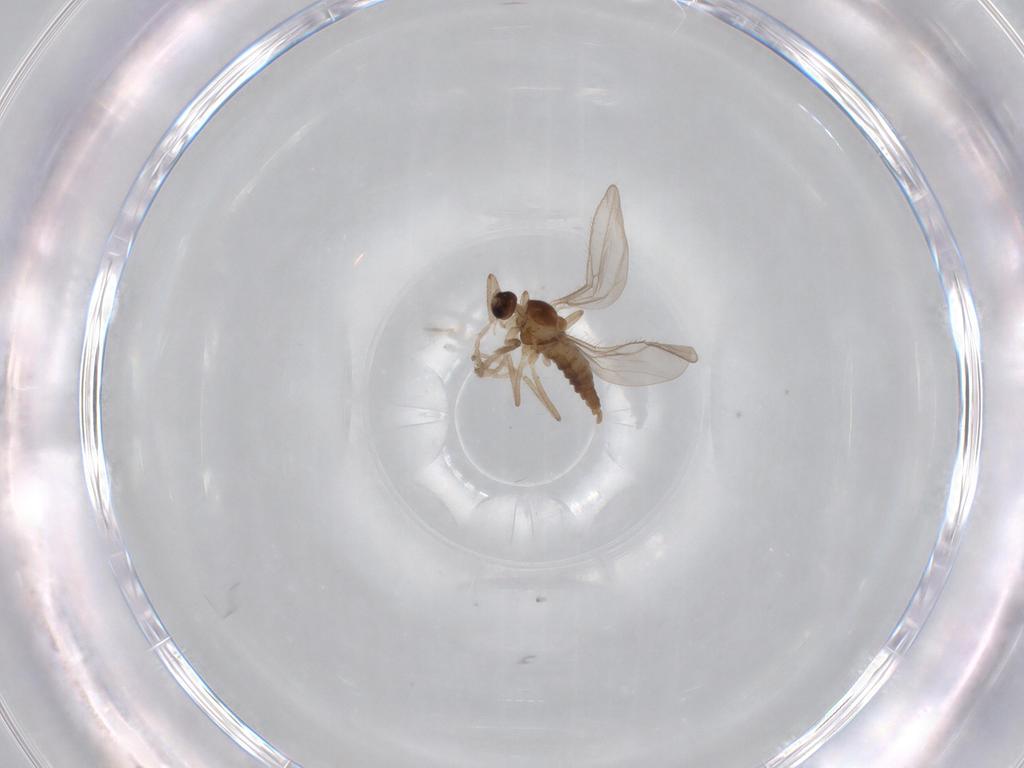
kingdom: Animalia
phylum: Arthropoda
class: Insecta
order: Diptera
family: Cecidomyiidae
